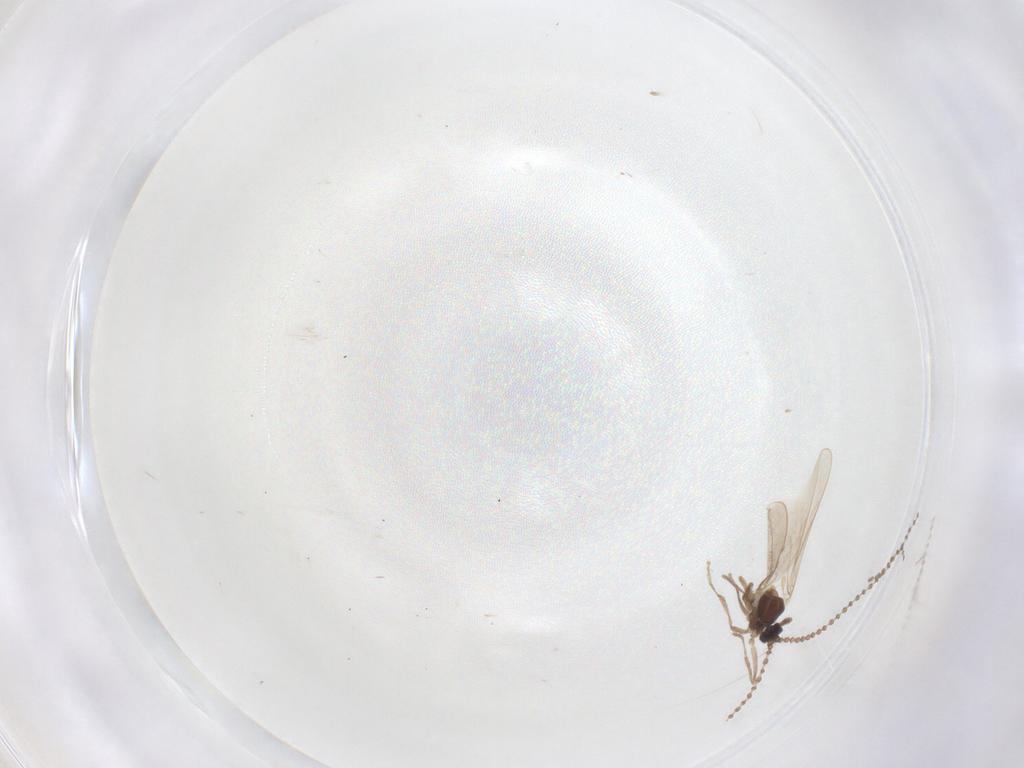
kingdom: Animalia
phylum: Arthropoda
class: Insecta
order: Diptera
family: Cecidomyiidae
